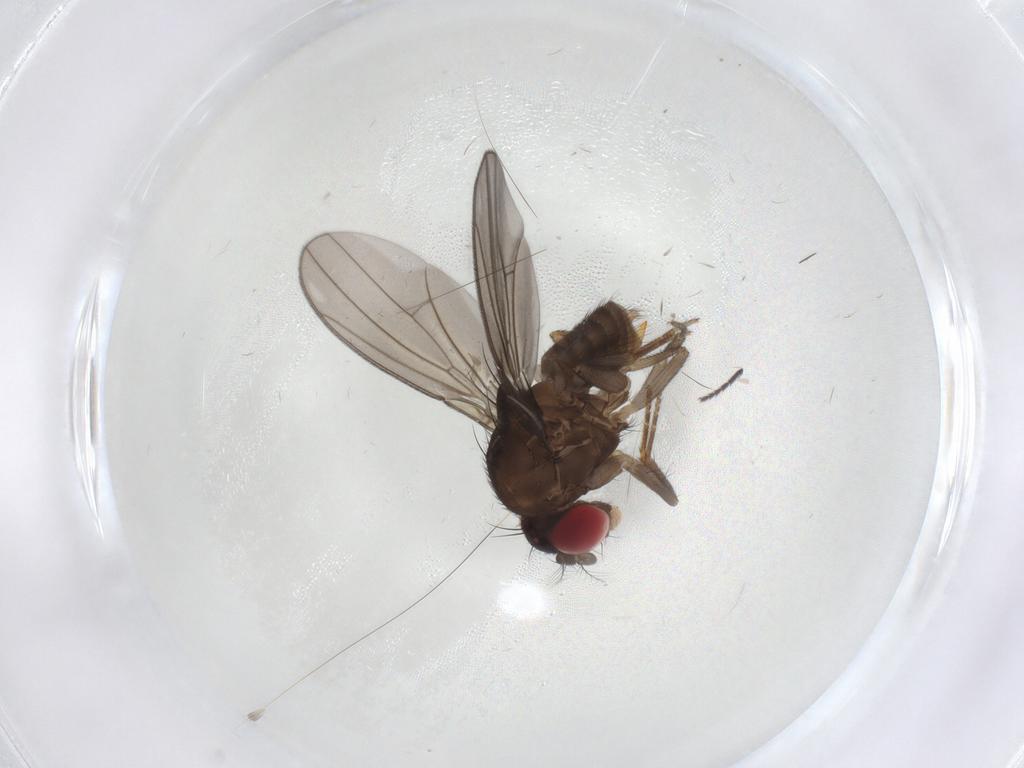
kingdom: Animalia
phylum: Arthropoda
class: Insecta
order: Diptera
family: Drosophilidae
